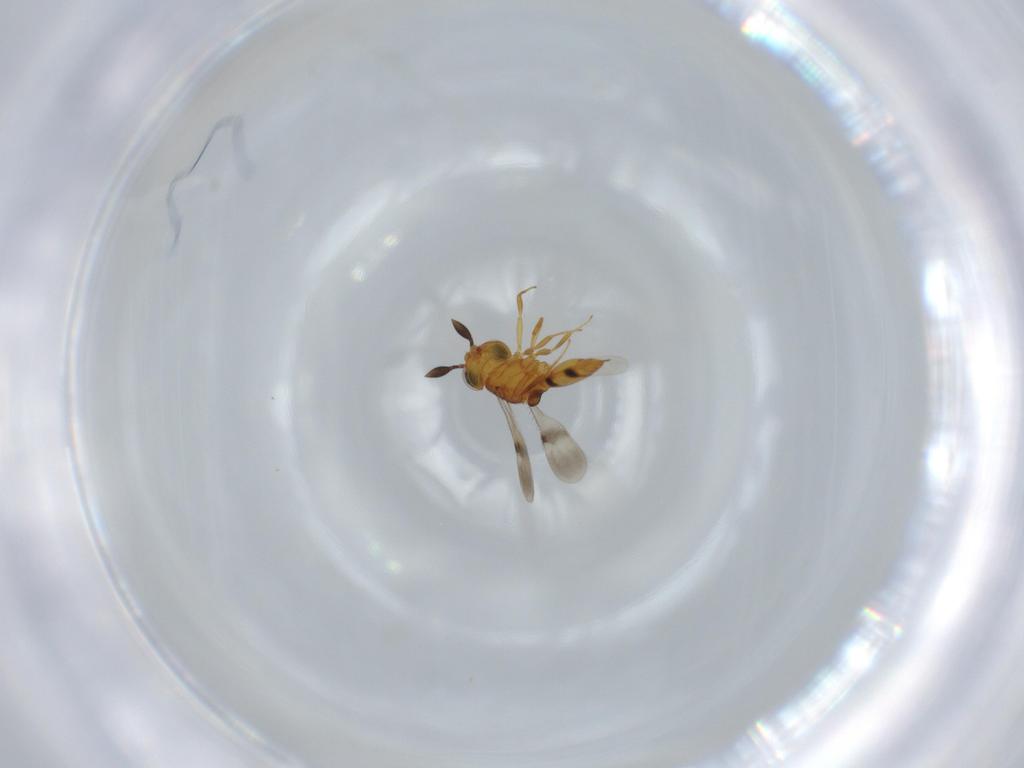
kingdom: Animalia
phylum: Arthropoda
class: Insecta
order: Hymenoptera
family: Scelionidae
